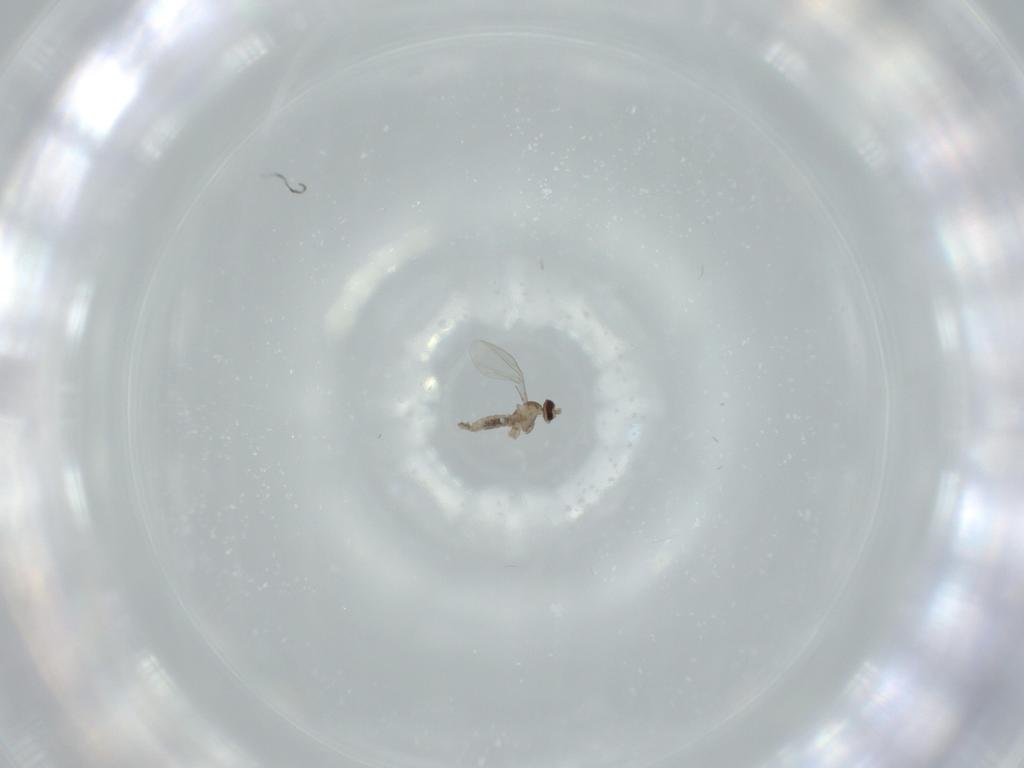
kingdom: Animalia
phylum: Arthropoda
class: Insecta
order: Diptera
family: Cecidomyiidae
